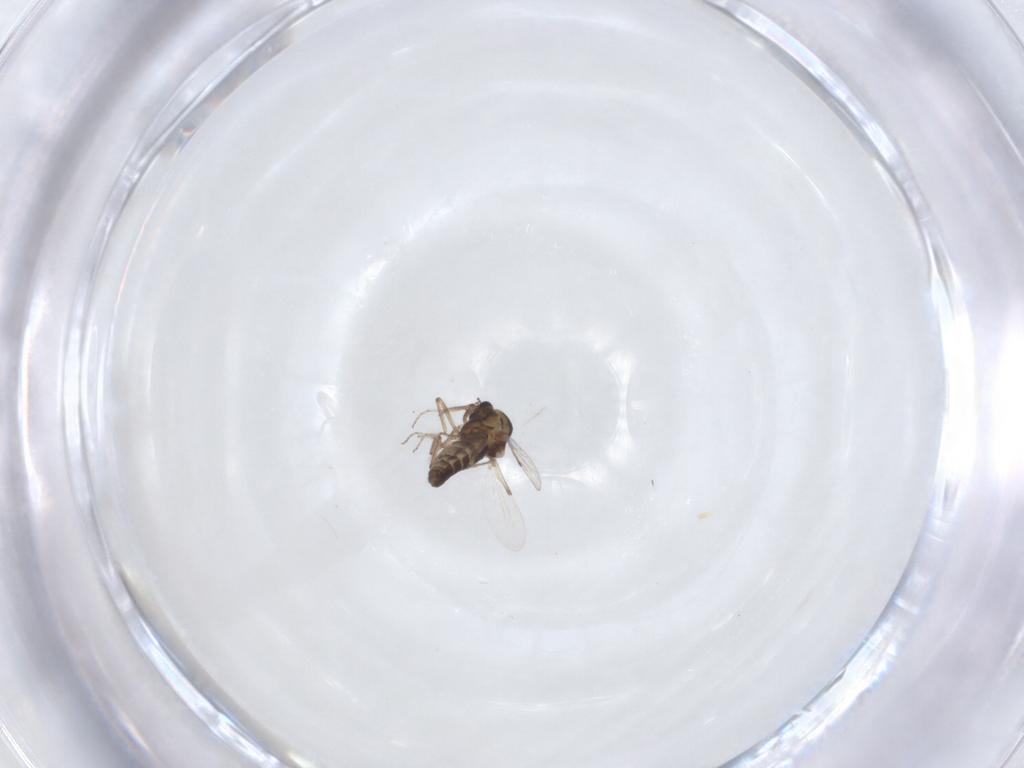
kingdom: Animalia
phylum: Arthropoda
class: Insecta
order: Diptera
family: Ceratopogonidae
